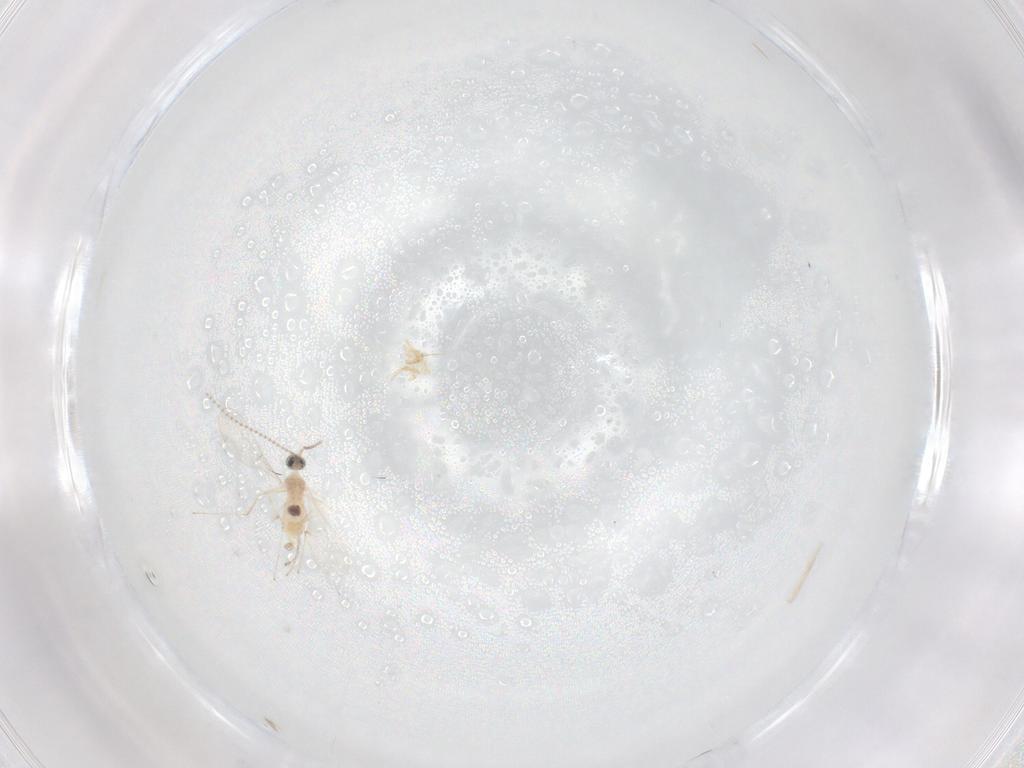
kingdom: Animalia
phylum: Arthropoda
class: Insecta
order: Diptera
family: Cecidomyiidae
